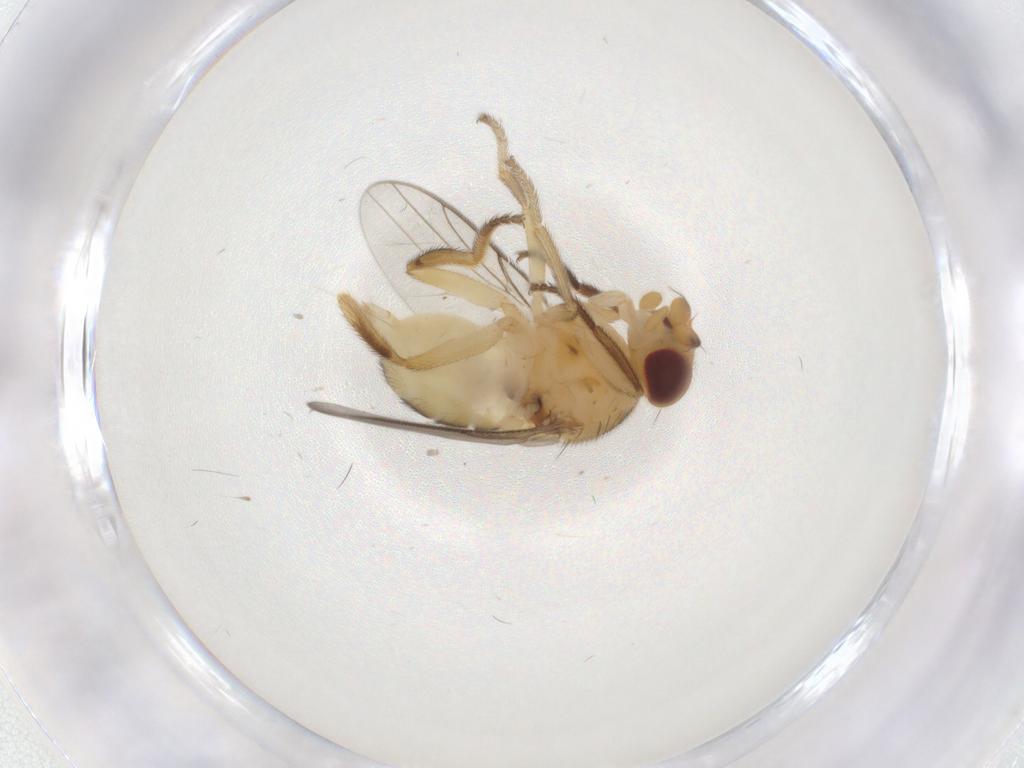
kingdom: Animalia
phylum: Arthropoda
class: Insecta
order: Diptera
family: Chloropidae
